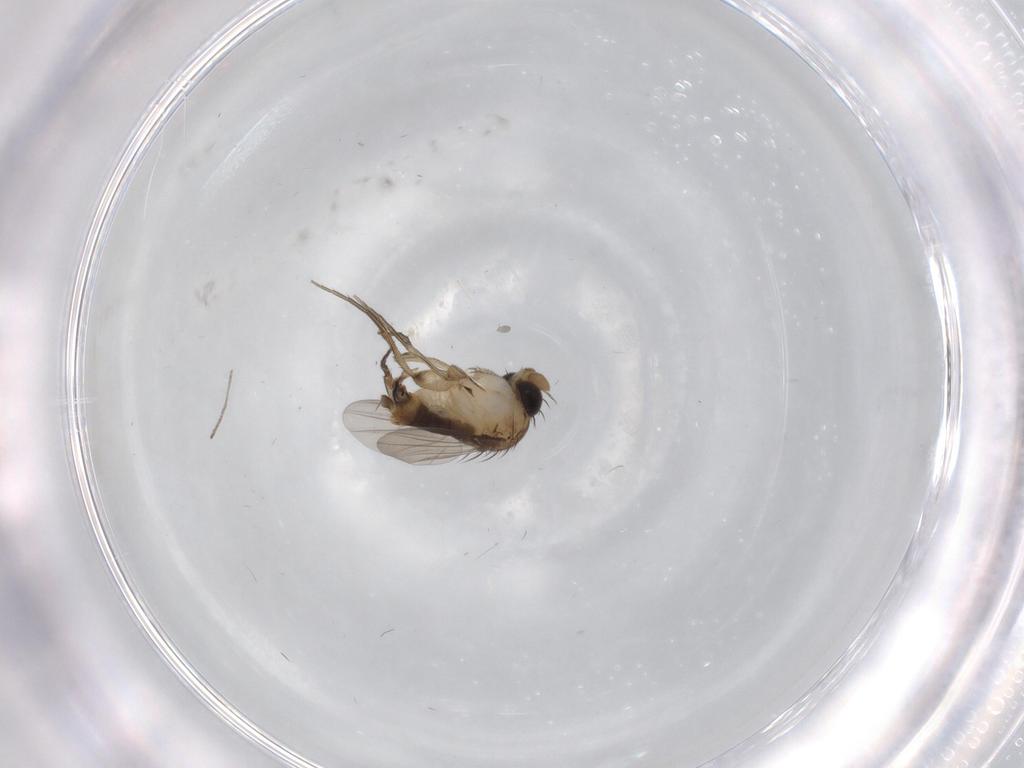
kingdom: Animalia
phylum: Arthropoda
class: Insecta
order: Diptera
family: Phoridae
